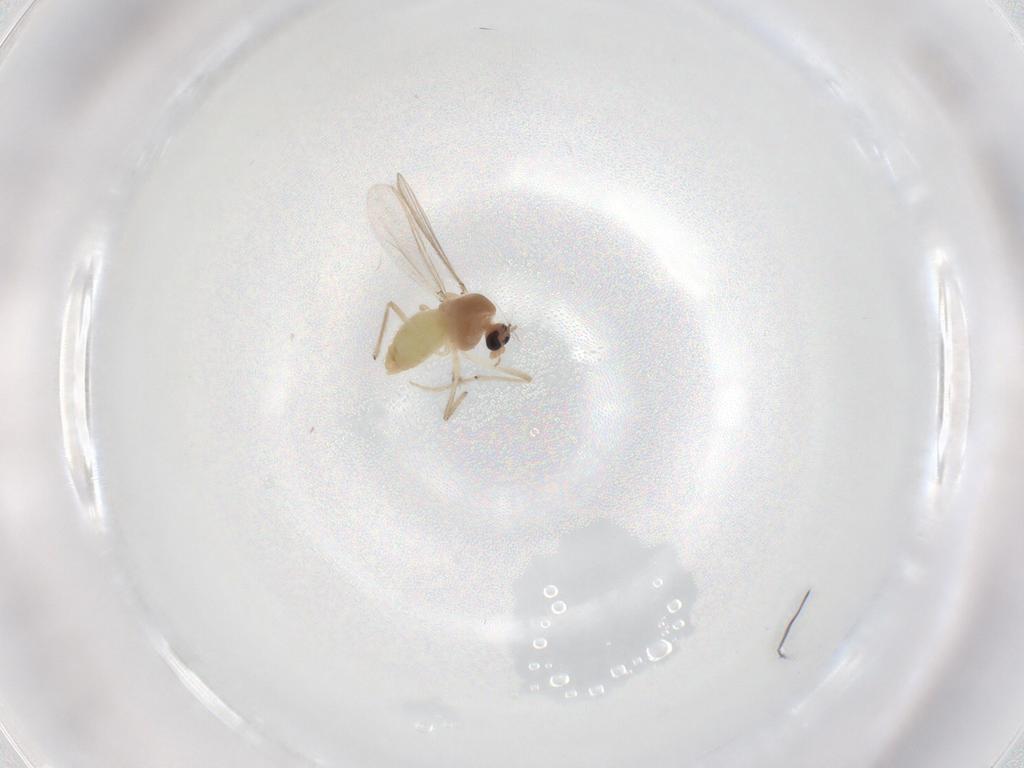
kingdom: Animalia
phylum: Arthropoda
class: Insecta
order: Diptera
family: Chironomidae
